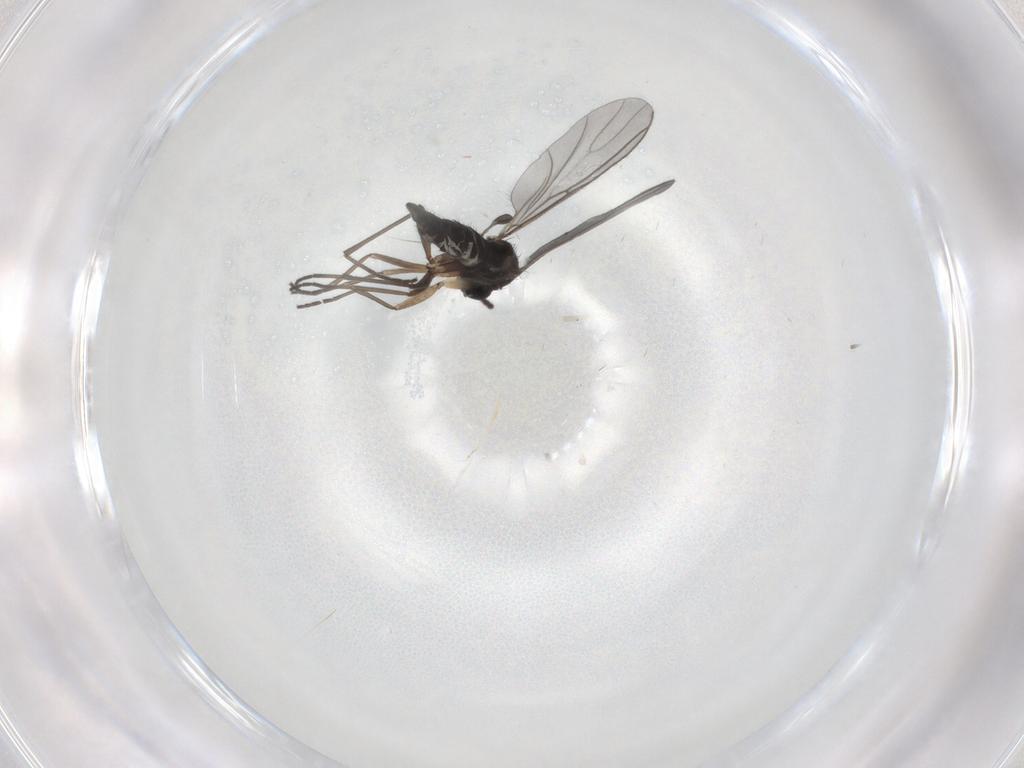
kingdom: Animalia
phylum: Arthropoda
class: Insecta
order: Diptera
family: Sciaridae
